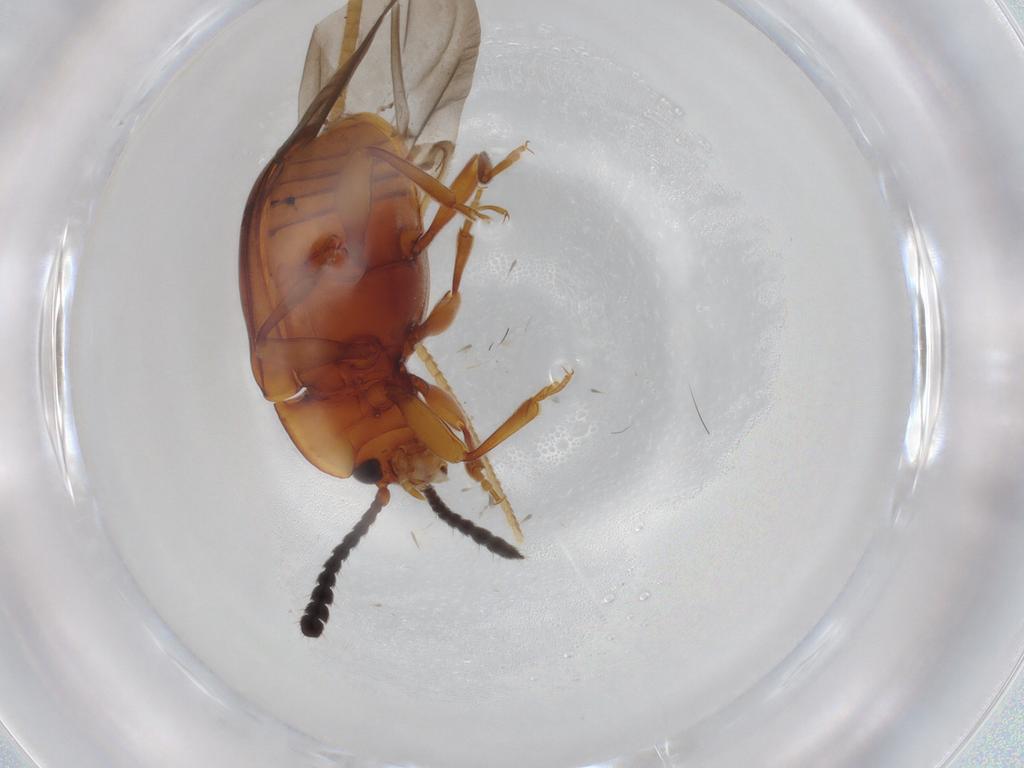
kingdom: Animalia
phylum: Arthropoda
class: Insecta
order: Coleoptera
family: Endomychidae
